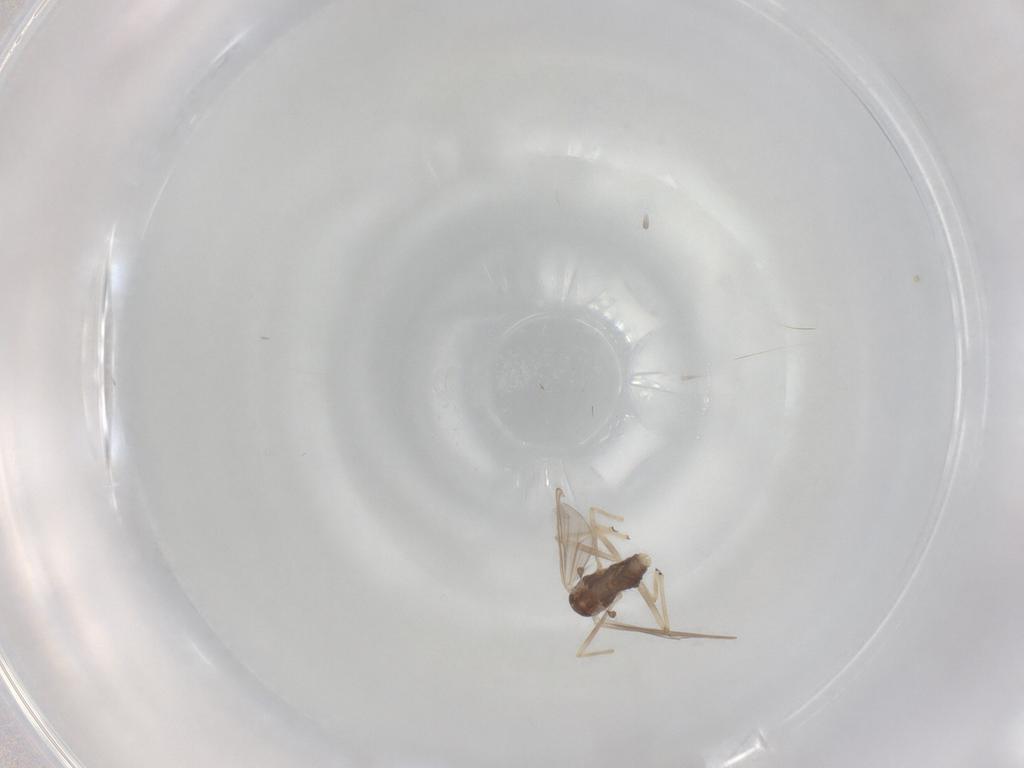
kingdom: Animalia
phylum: Arthropoda
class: Insecta
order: Diptera
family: Chironomidae
